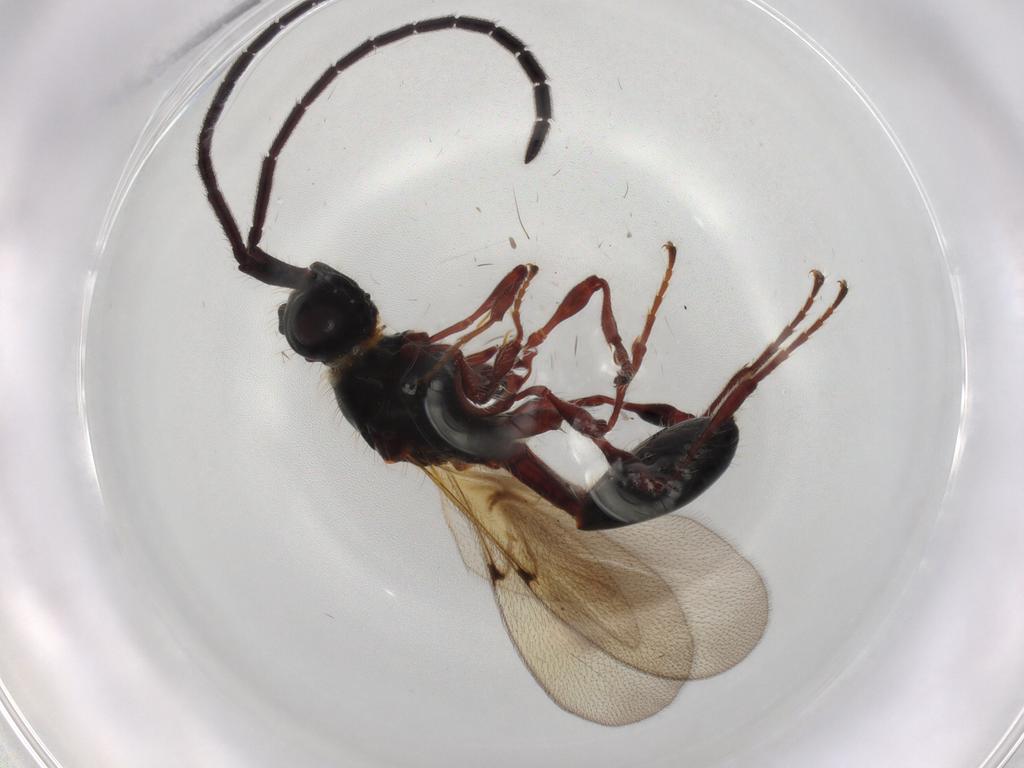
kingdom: Animalia
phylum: Arthropoda
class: Insecta
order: Hymenoptera
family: Diapriidae
